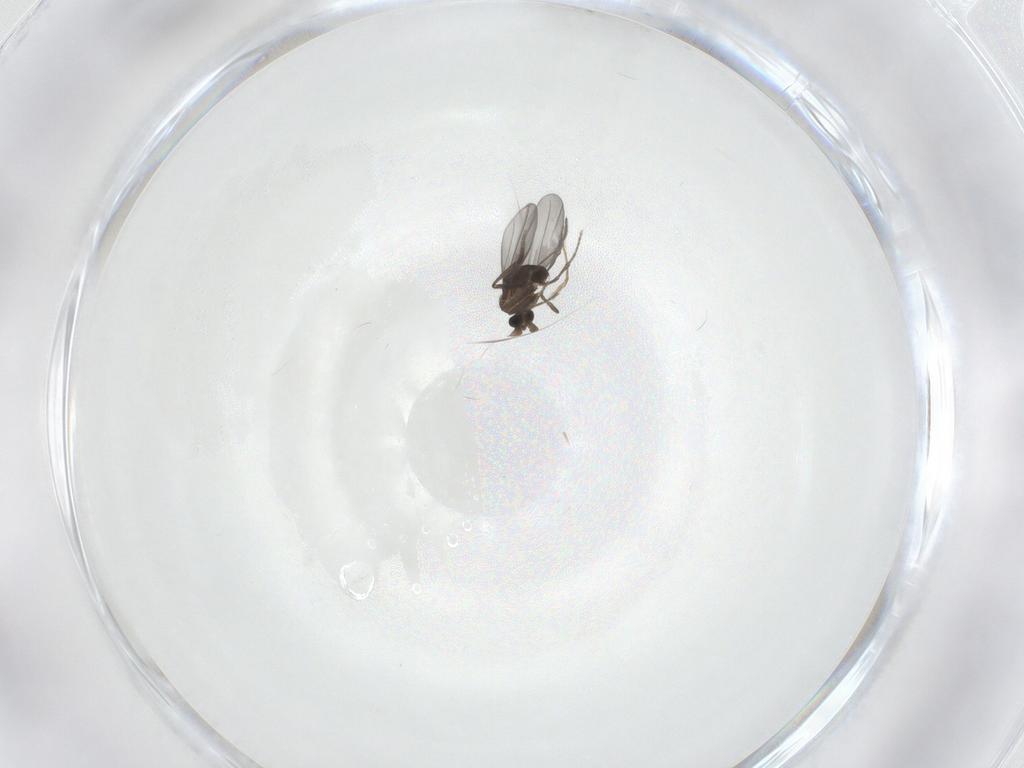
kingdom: Animalia
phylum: Arthropoda
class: Insecta
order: Diptera
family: Phoridae
